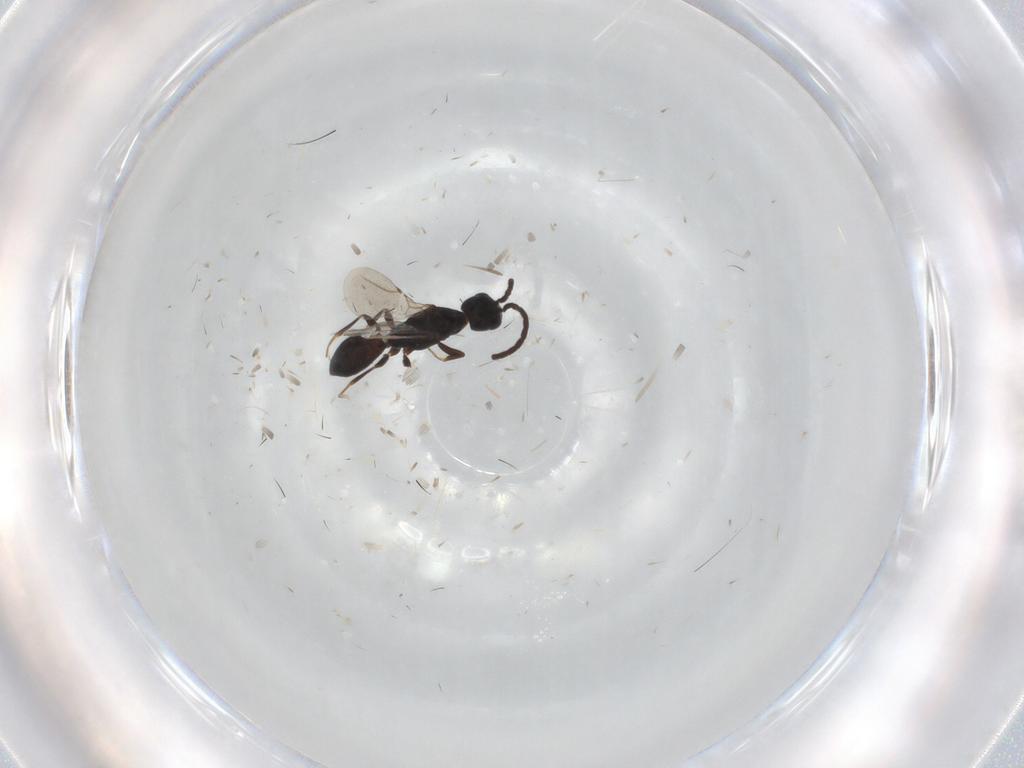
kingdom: Animalia
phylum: Arthropoda
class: Insecta
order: Hymenoptera
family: Bethylidae
